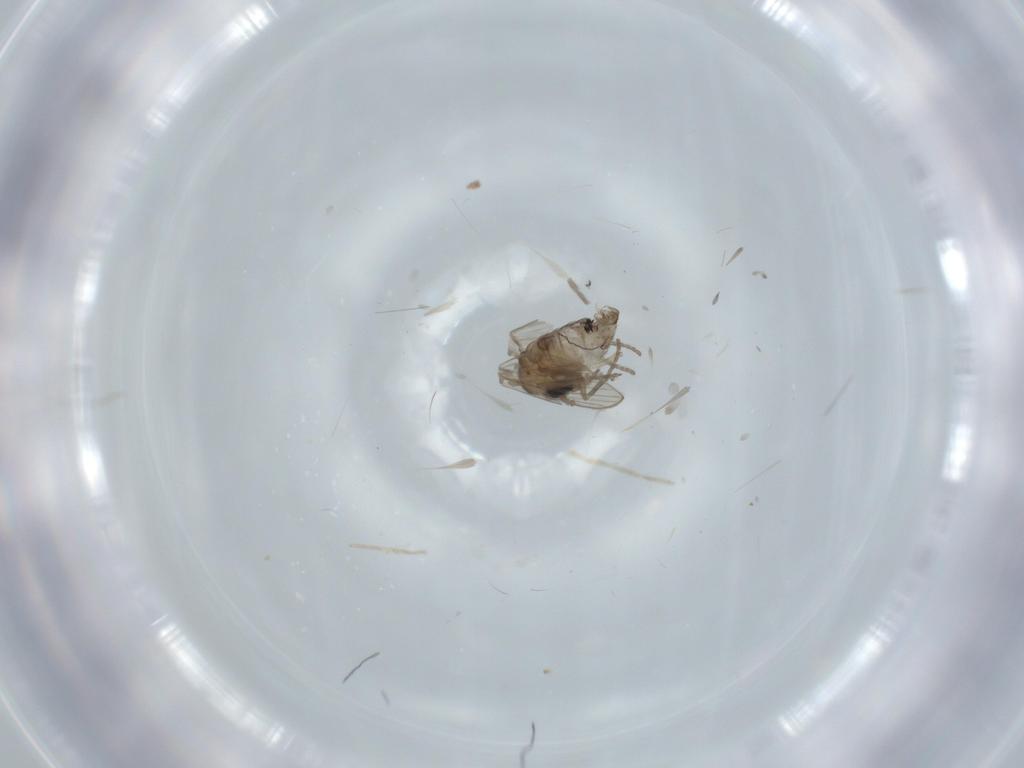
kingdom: Animalia
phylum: Arthropoda
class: Insecta
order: Diptera
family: Psychodidae
